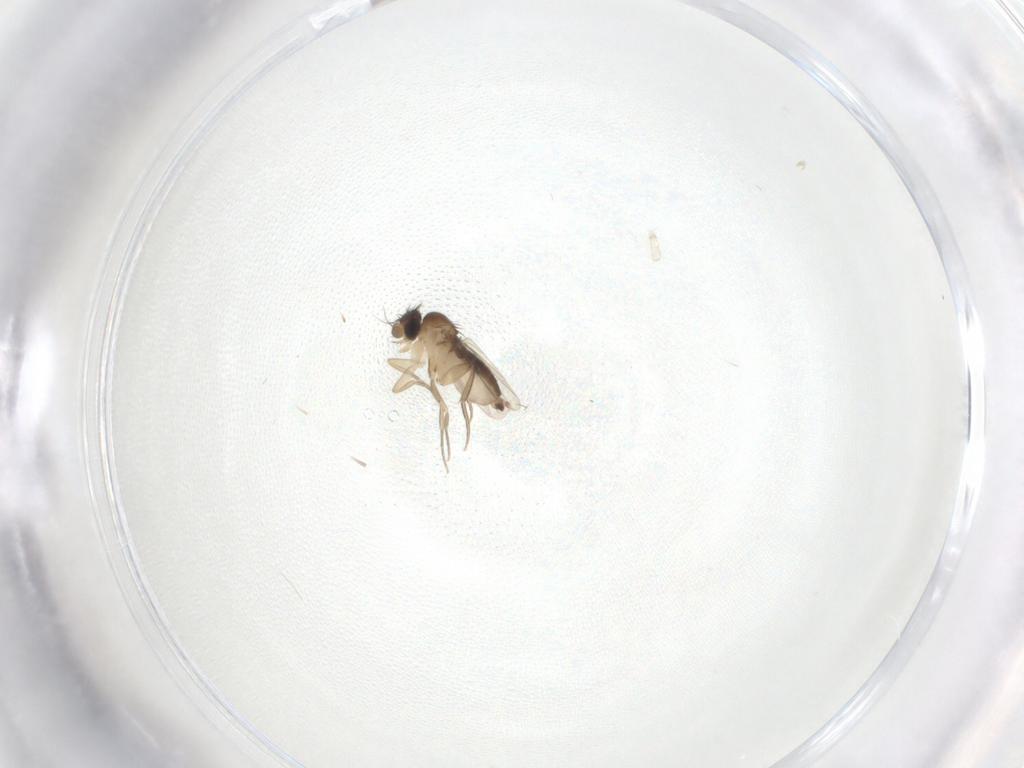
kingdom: Animalia
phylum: Arthropoda
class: Insecta
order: Diptera
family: Phoridae
